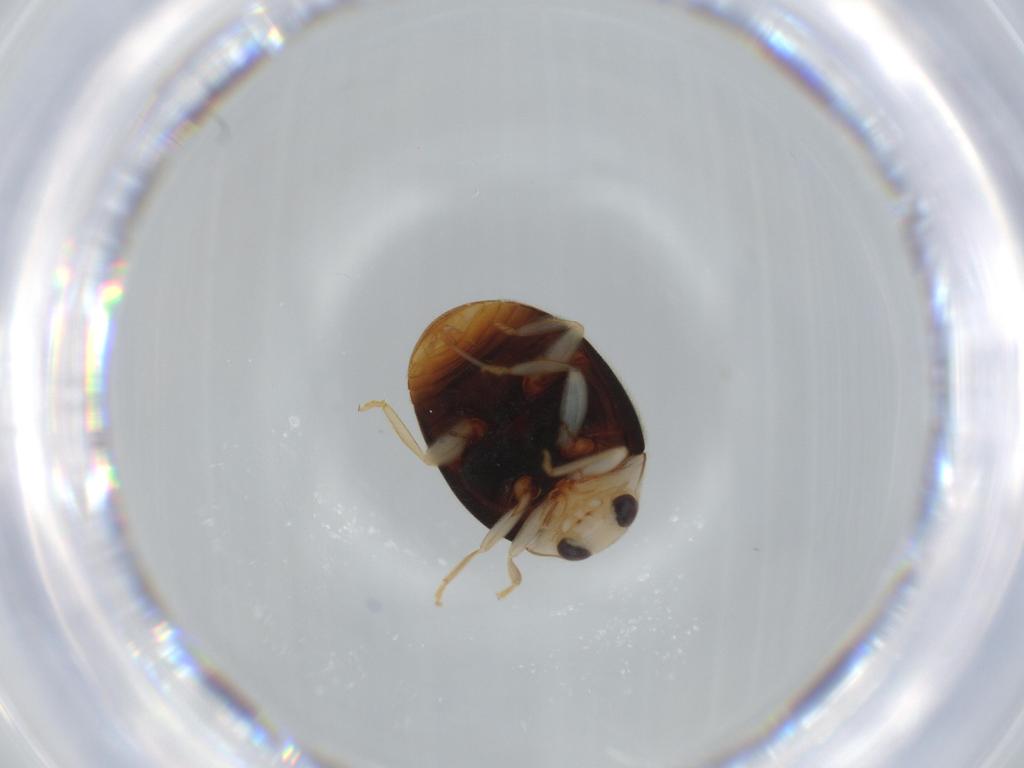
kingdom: Animalia
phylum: Arthropoda
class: Insecta
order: Coleoptera
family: Coccinellidae
